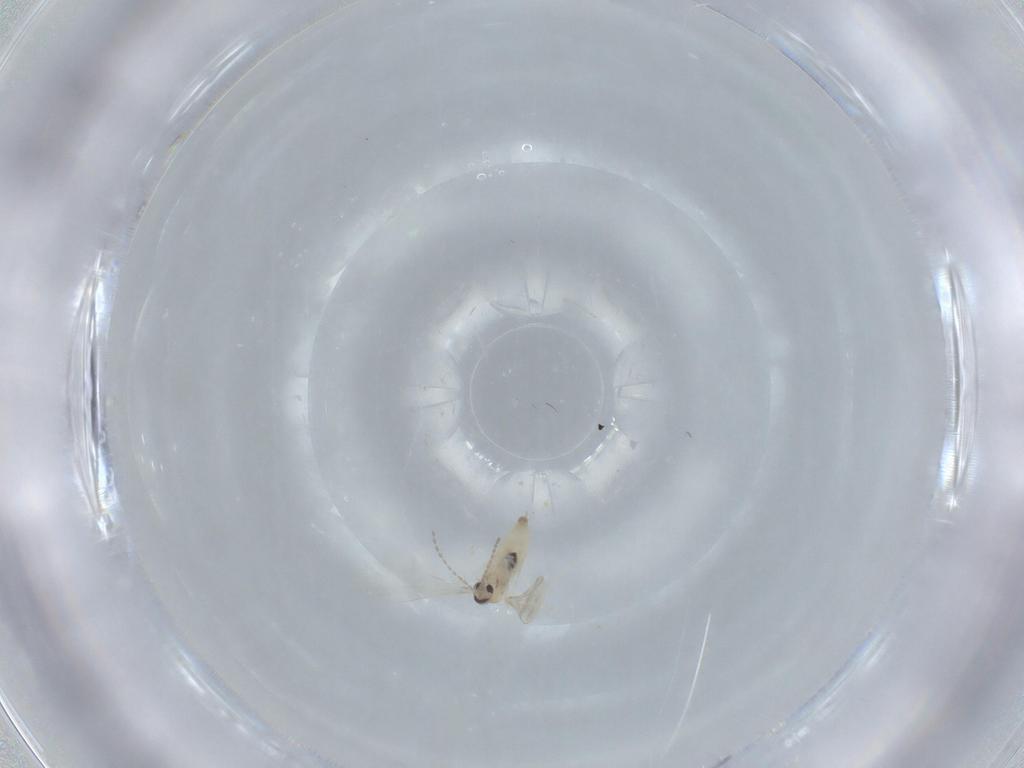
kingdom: Animalia
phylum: Arthropoda
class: Insecta
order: Diptera
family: Cecidomyiidae
